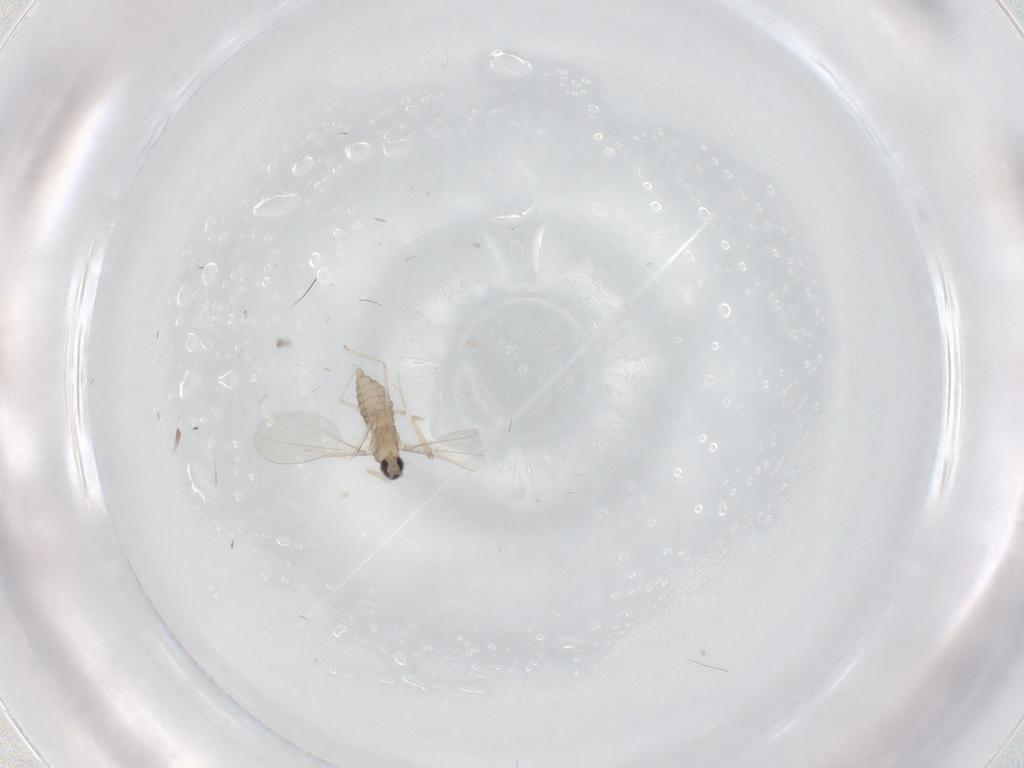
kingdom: Animalia
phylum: Arthropoda
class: Insecta
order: Diptera
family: Cecidomyiidae
